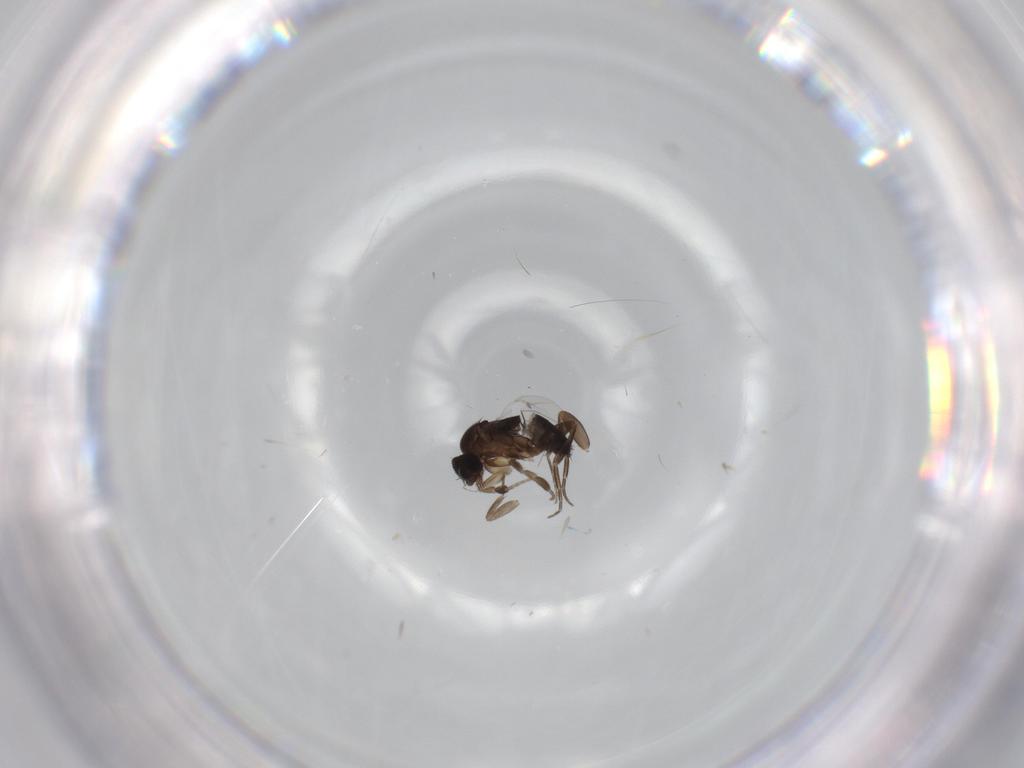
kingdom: Animalia
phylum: Arthropoda
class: Insecta
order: Diptera
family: Phoridae
